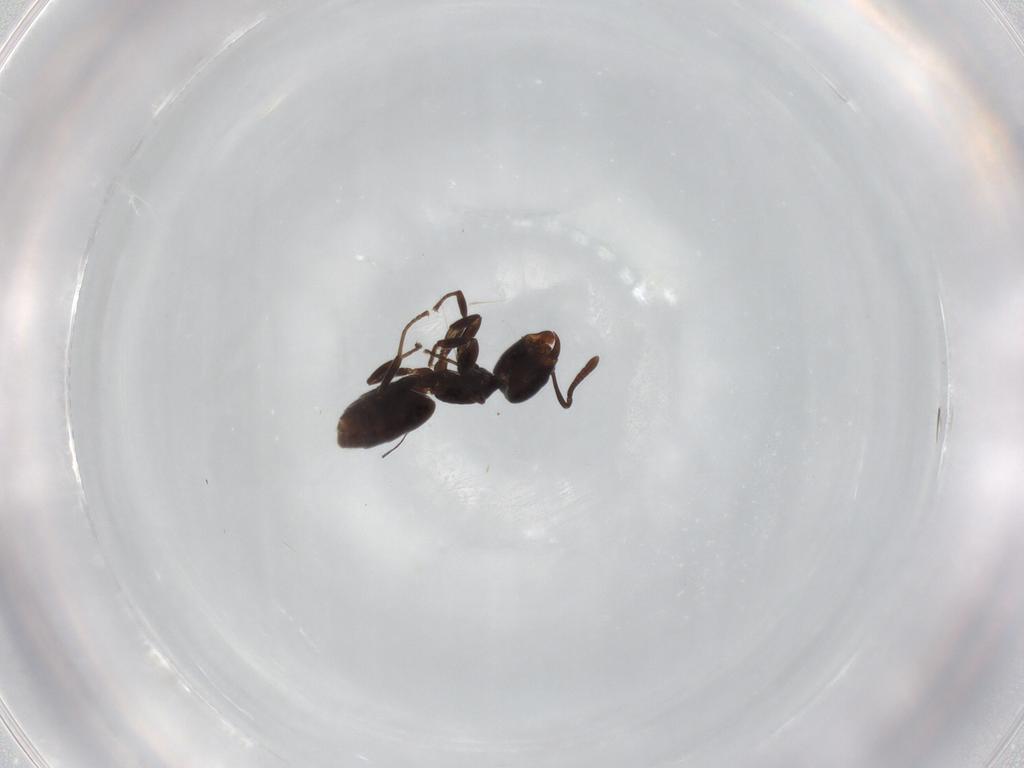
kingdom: Animalia
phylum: Arthropoda
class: Insecta
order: Hymenoptera
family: Formicidae
